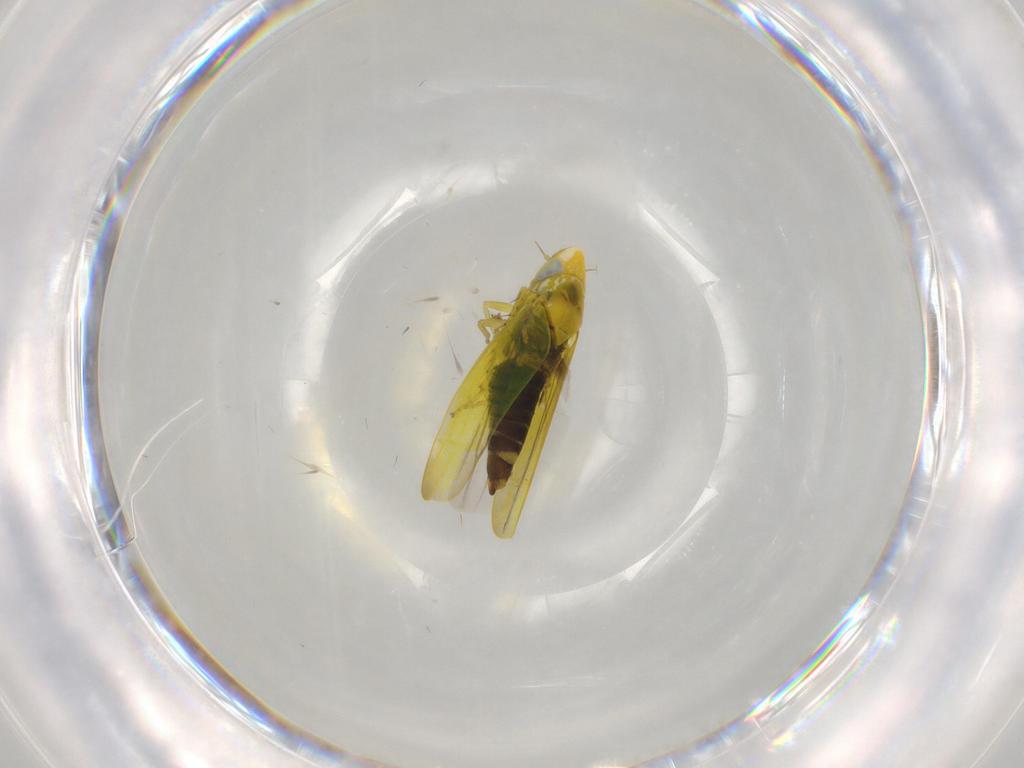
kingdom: Animalia
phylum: Arthropoda
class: Insecta
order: Hemiptera
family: Cicadellidae
